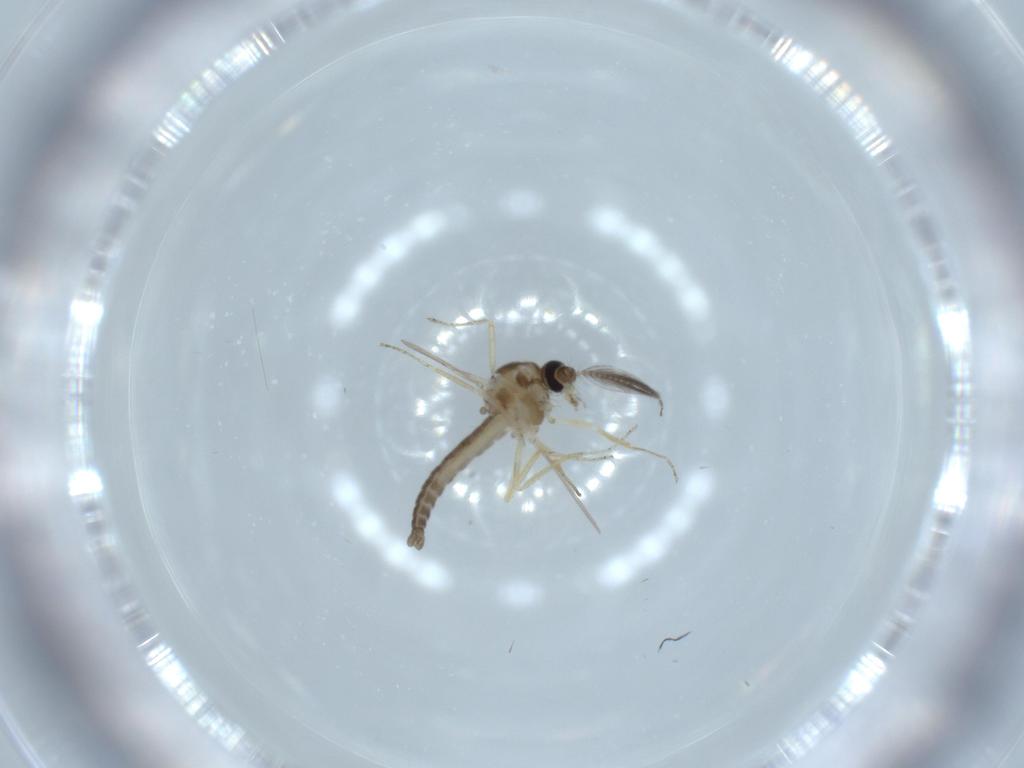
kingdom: Animalia
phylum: Arthropoda
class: Insecta
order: Diptera
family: Ceratopogonidae
